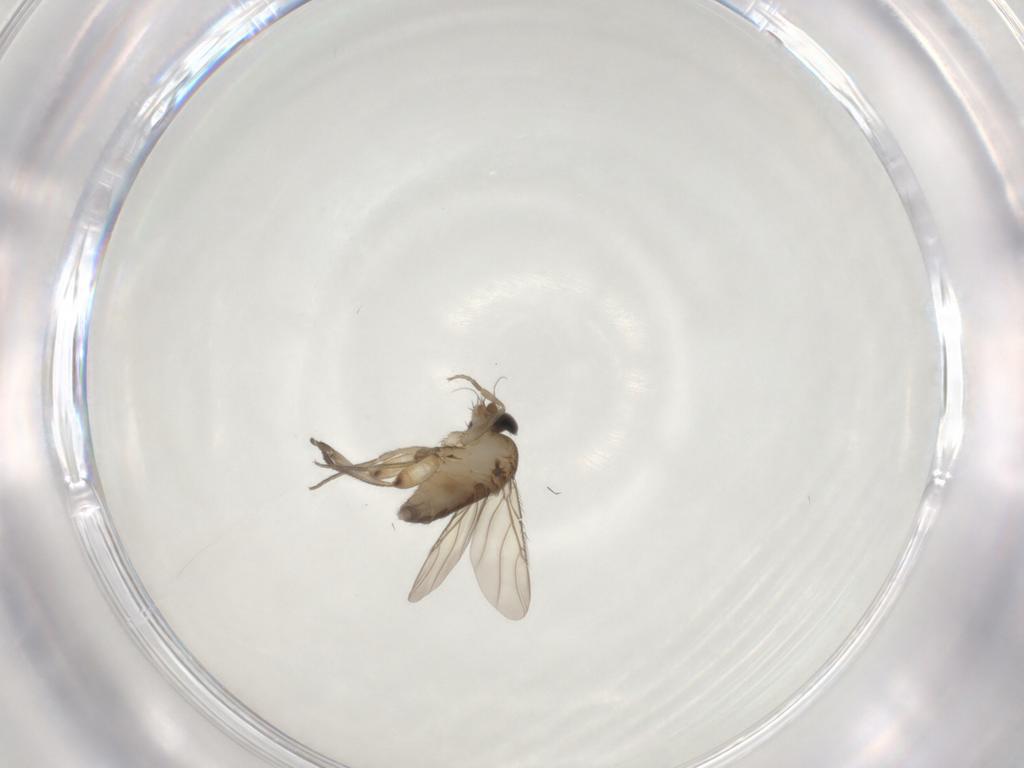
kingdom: Animalia
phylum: Arthropoda
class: Insecta
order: Diptera
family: Phoridae
